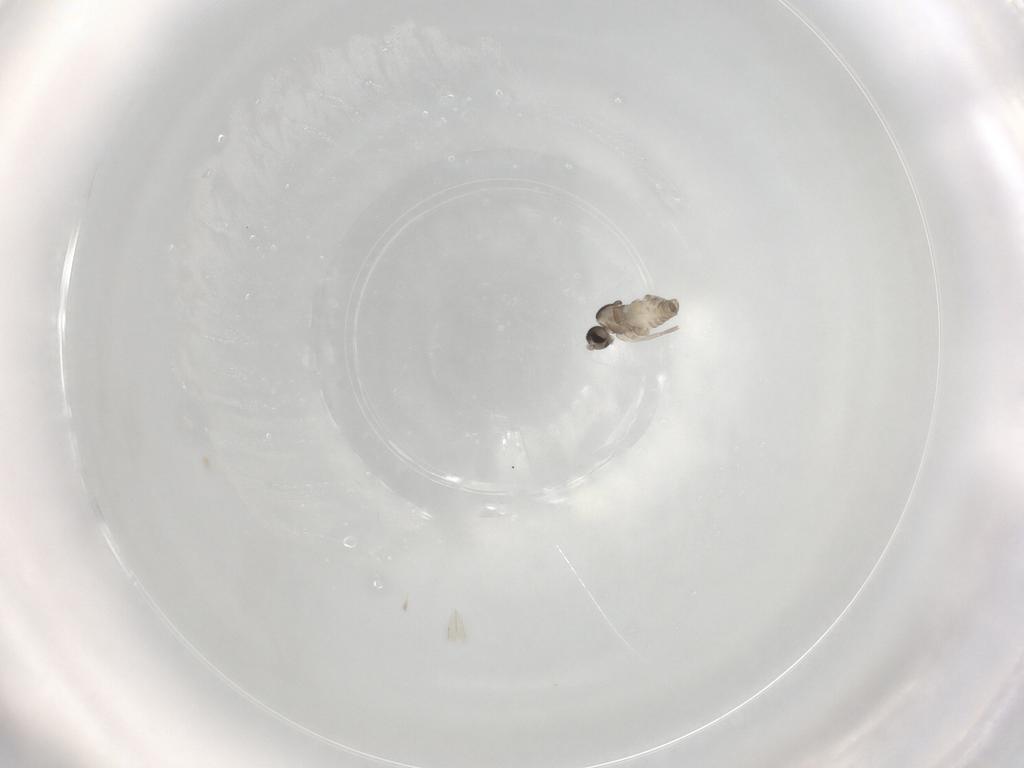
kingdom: Animalia
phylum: Arthropoda
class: Insecta
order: Diptera
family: Cecidomyiidae
